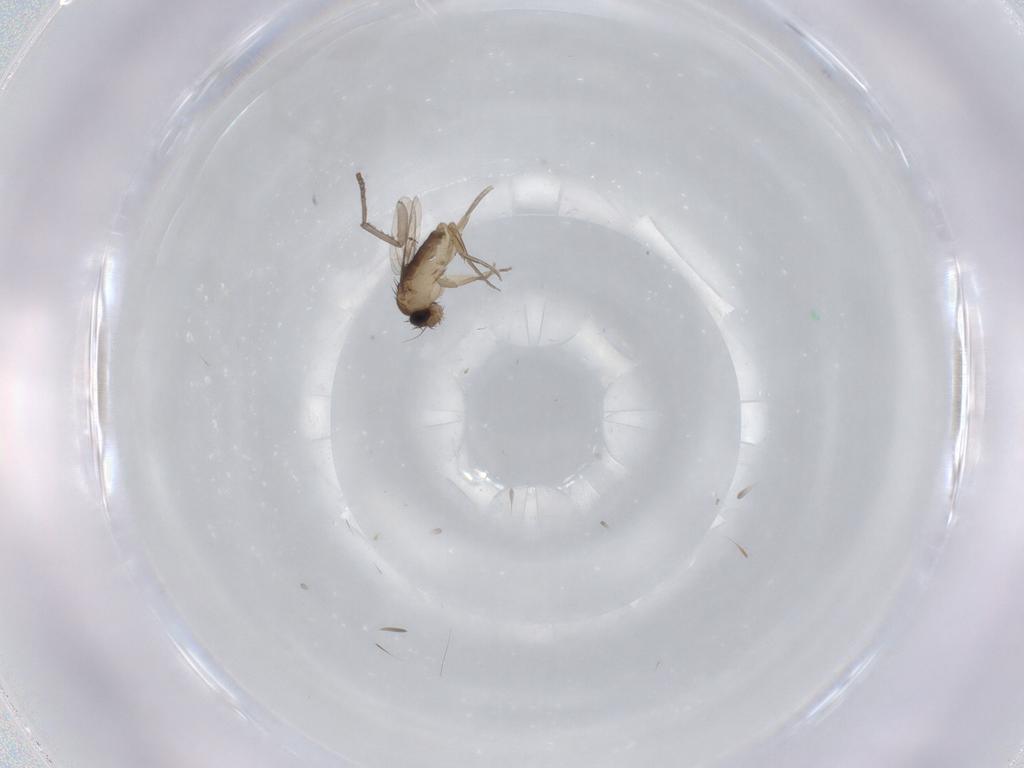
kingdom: Animalia
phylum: Arthropoda
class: Insecta
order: Diptera
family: Phoridae
